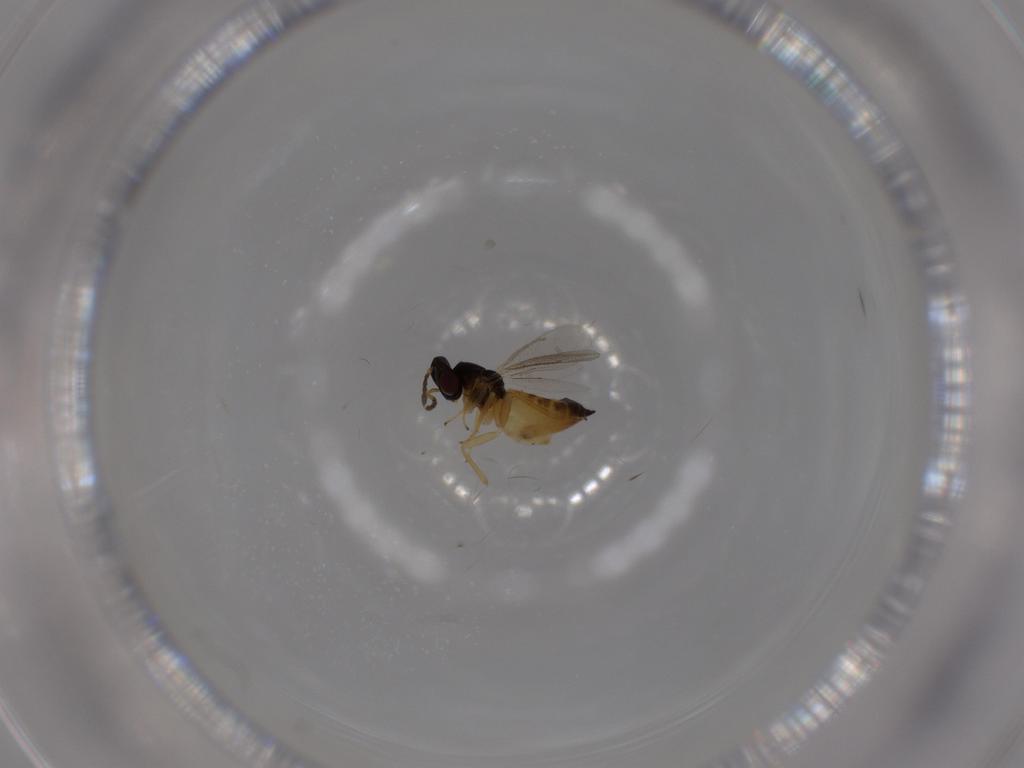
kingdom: Animalia
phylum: Arthropoda
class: Insecta
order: Hymenoptera
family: Eulophidae
